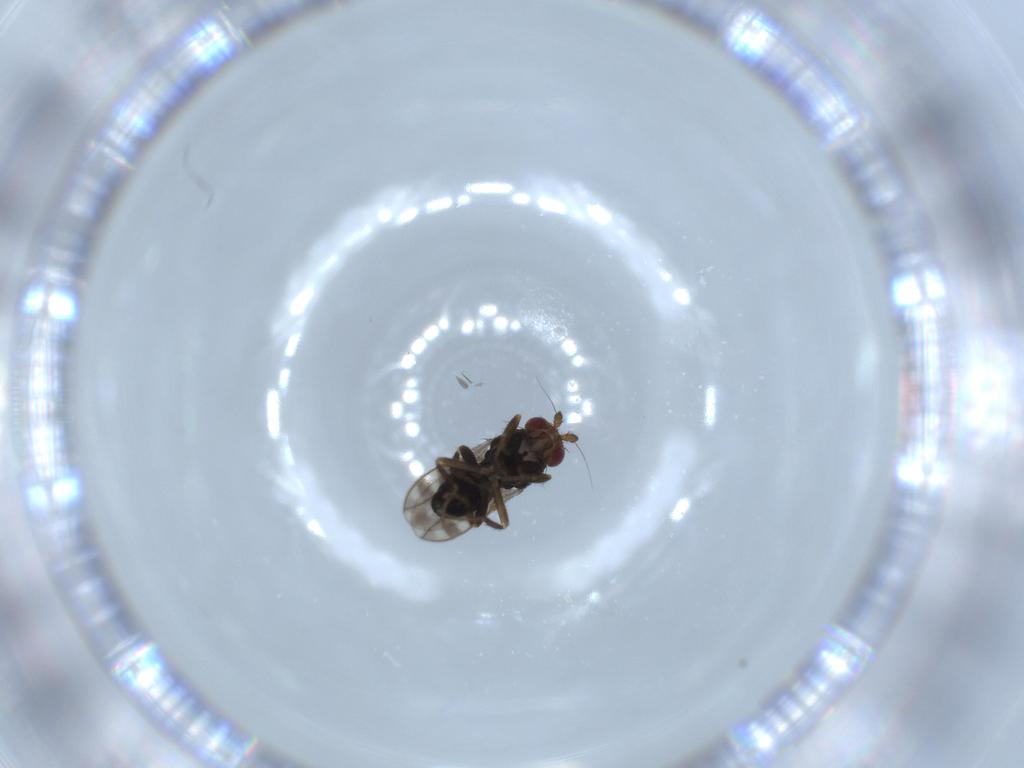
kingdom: Animalia
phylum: Arthropoda
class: Insecta
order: Diptera
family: Sphaeroceridae
